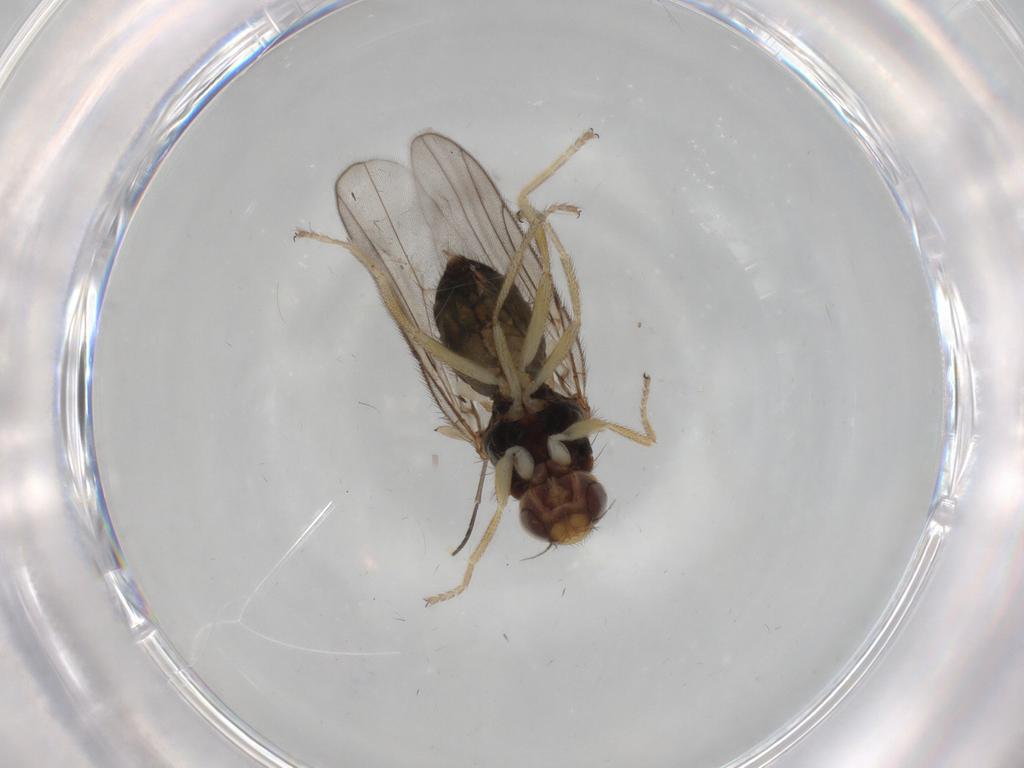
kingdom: Animalia
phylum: Arthropoda
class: Insecta
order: Diptera
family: Chloropidae
